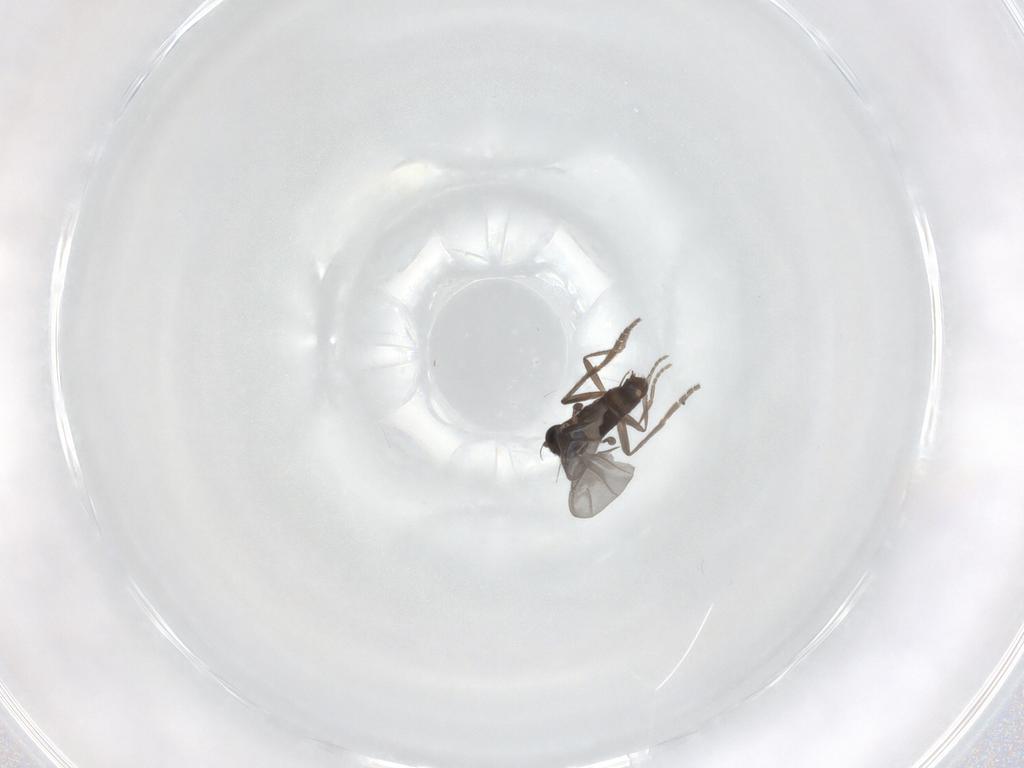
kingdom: Animalia
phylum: Arthropoda
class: Insecta
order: Diptera
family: Phoridae
